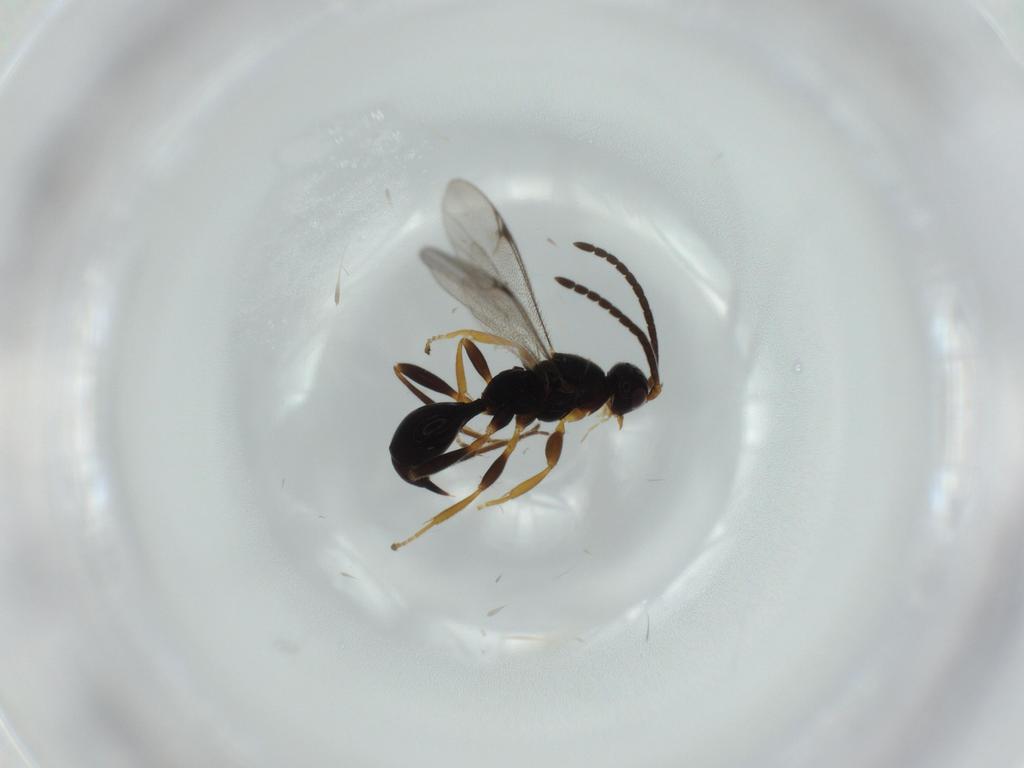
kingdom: Animalia
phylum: Arthropoda
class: Insecta
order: Hymenoptera
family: Proctotrupidae
